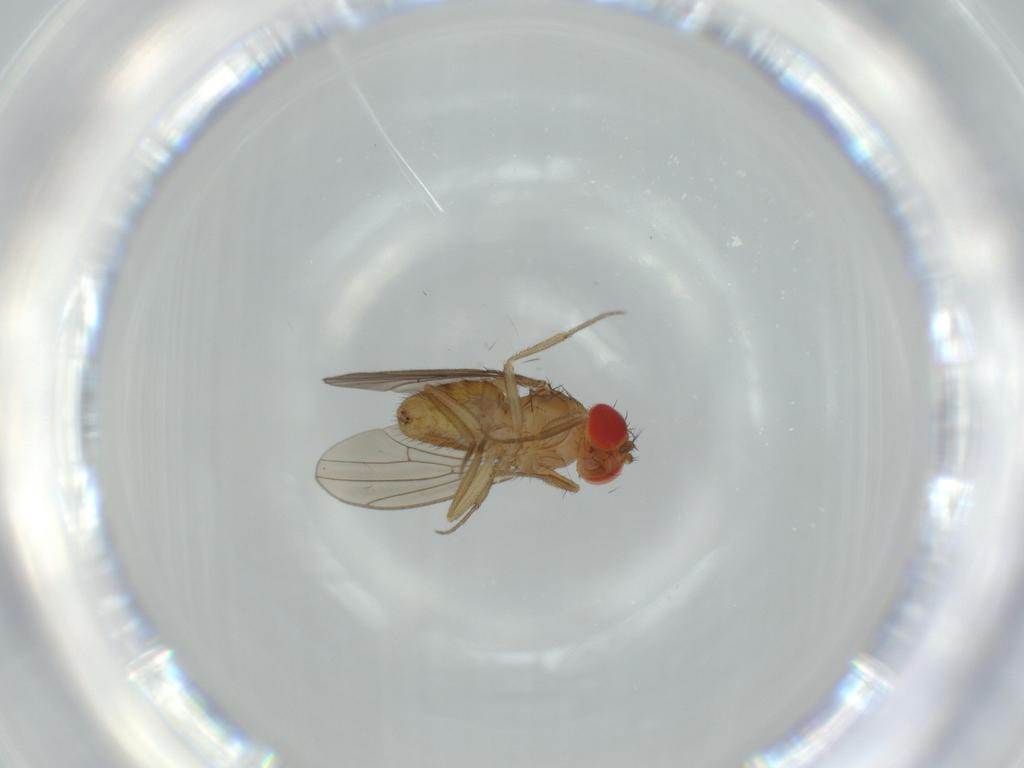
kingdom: Animalia
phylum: Arthropoda
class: Insecta
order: Diptera
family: Drosophilidae
